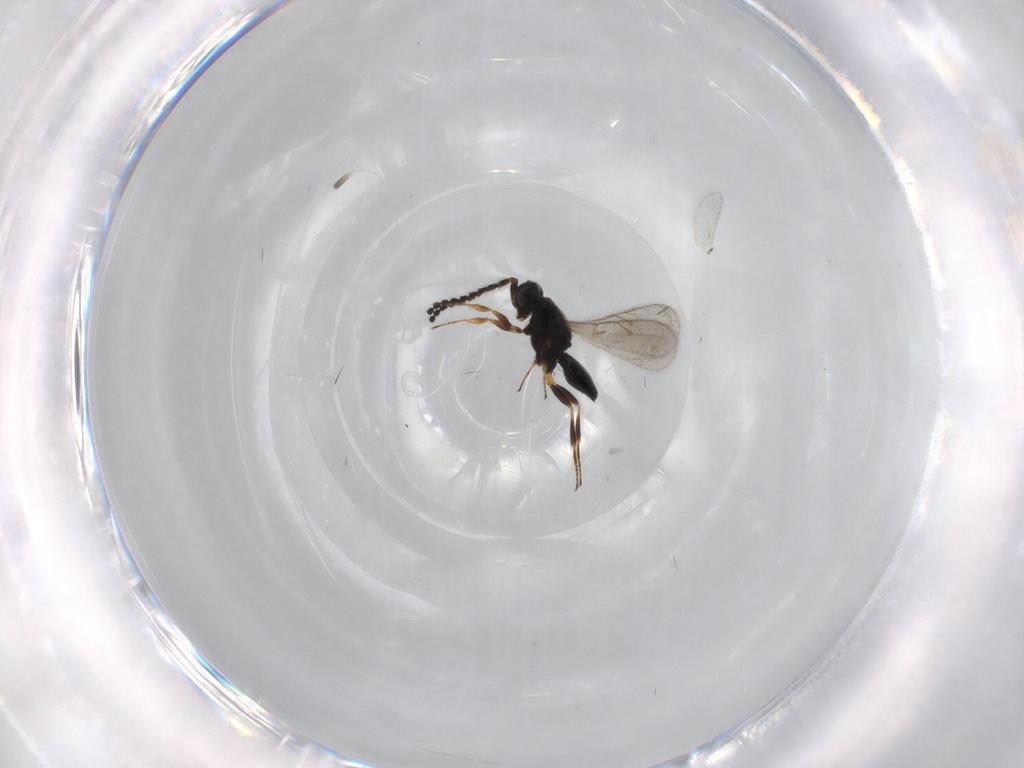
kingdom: Animalia
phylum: Arthropoda
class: Insecta
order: Hymenoptera
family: Scelionidae
